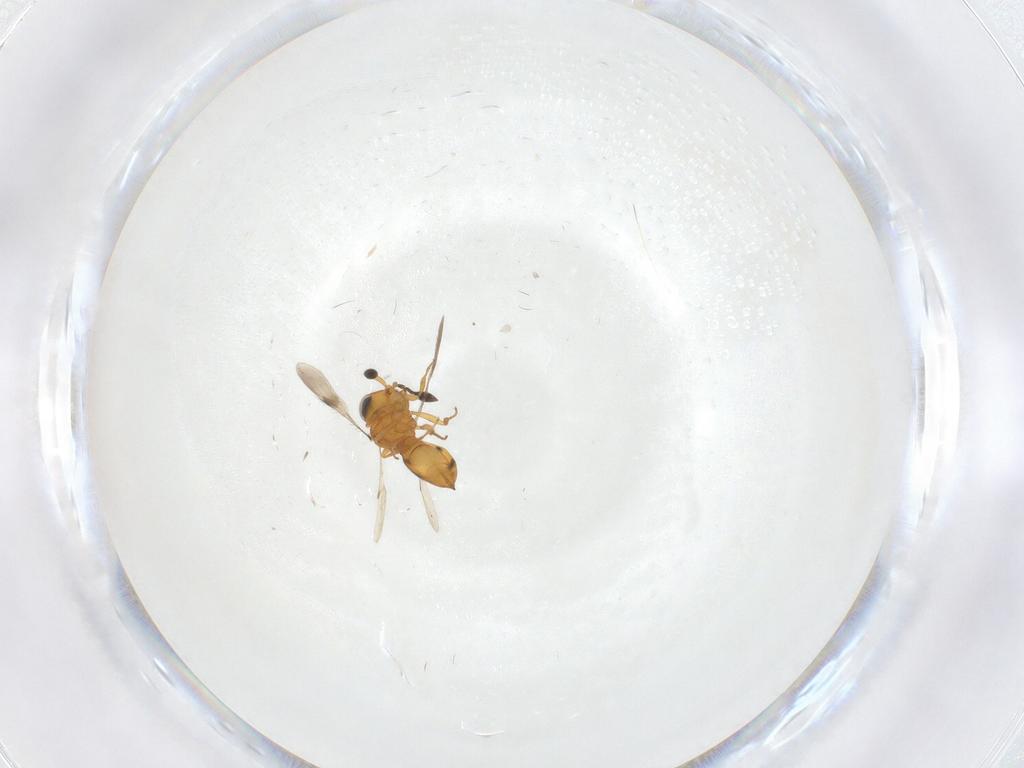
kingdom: Animalia
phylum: Arthropoda
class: Insecta
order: Hymenoptera
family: Scelionidae
